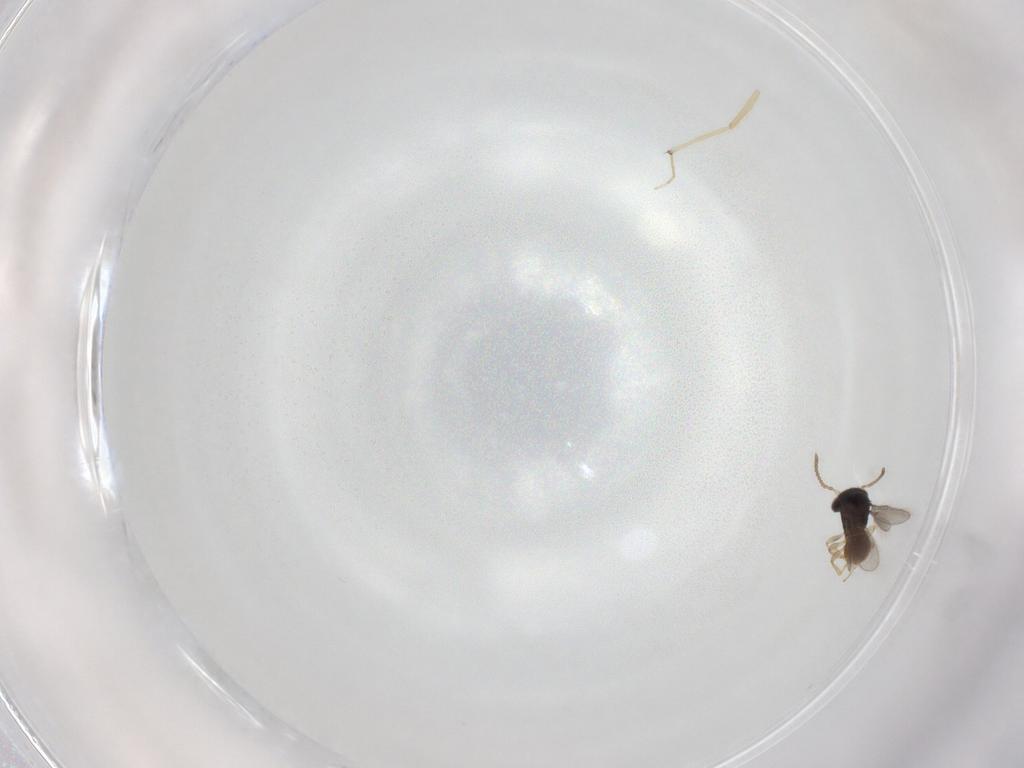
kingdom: Animalia
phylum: Arthropoda
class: Insecta
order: Hymenoptera
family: Scelionidae
